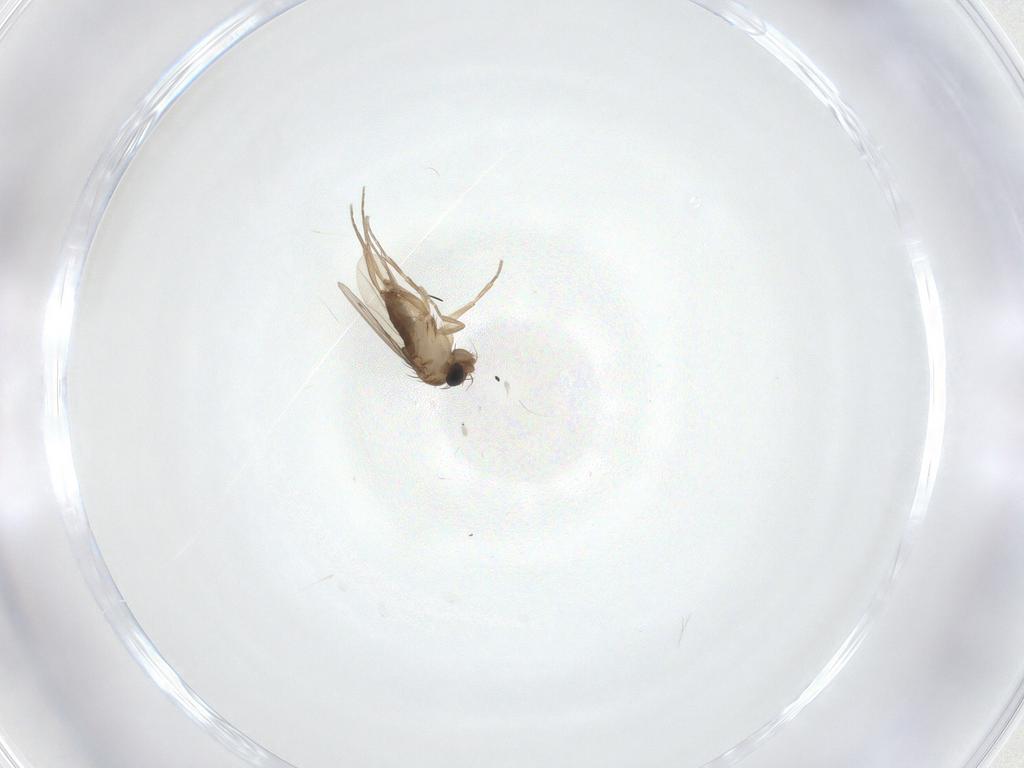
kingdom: Animalia
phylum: Arthropoda
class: Insecta
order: Diptera
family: Phoridae
